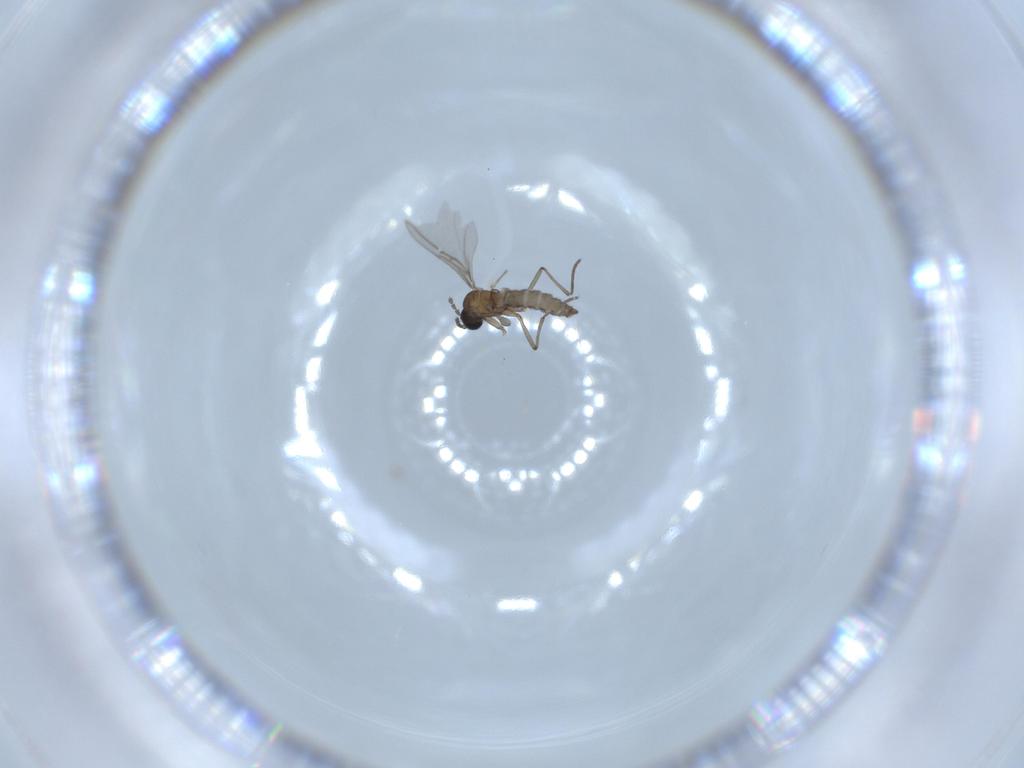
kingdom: Animalia
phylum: Arthropoda
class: Insecta
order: Diptera
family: Sciaridae
